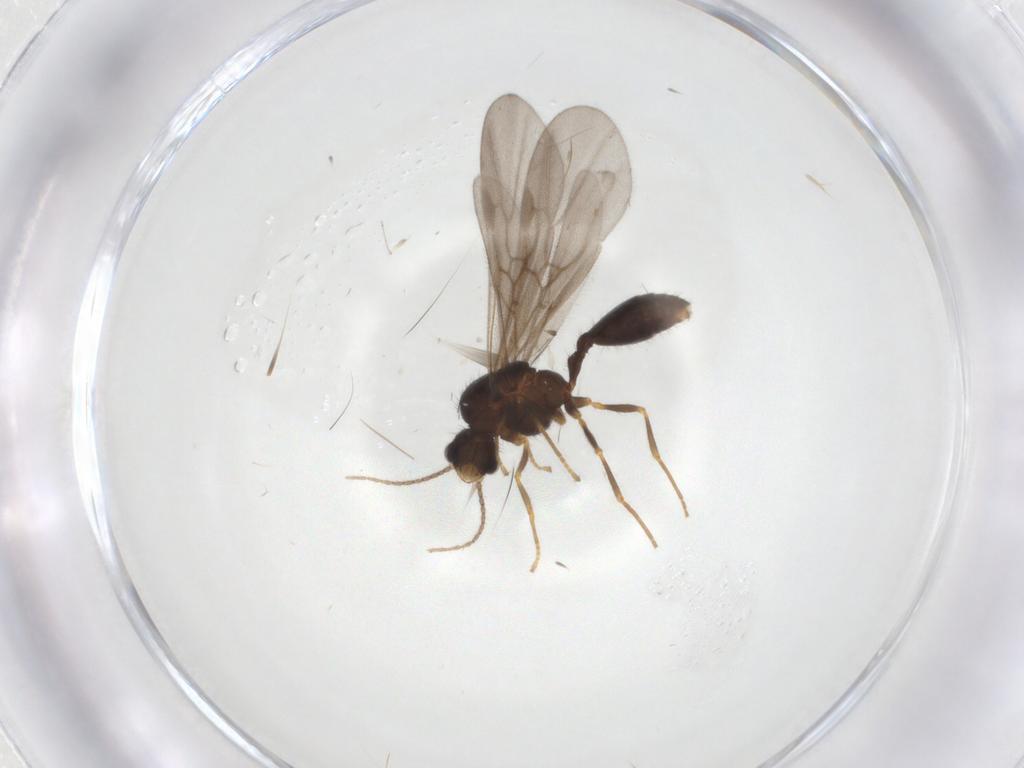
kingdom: Animalia
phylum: Arthropoda
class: Insecta
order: Hymenoptera
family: Formicidae
